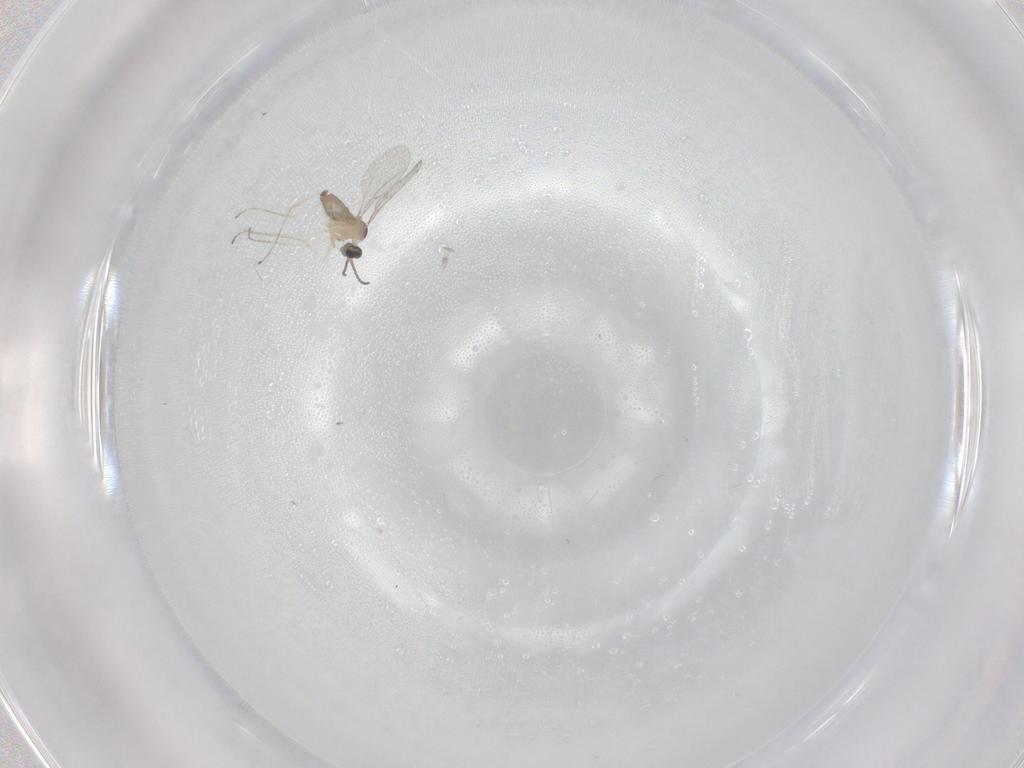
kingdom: Animalia
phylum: Arthropoda
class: Insecta
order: Diptera
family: Cecidomyiidae
